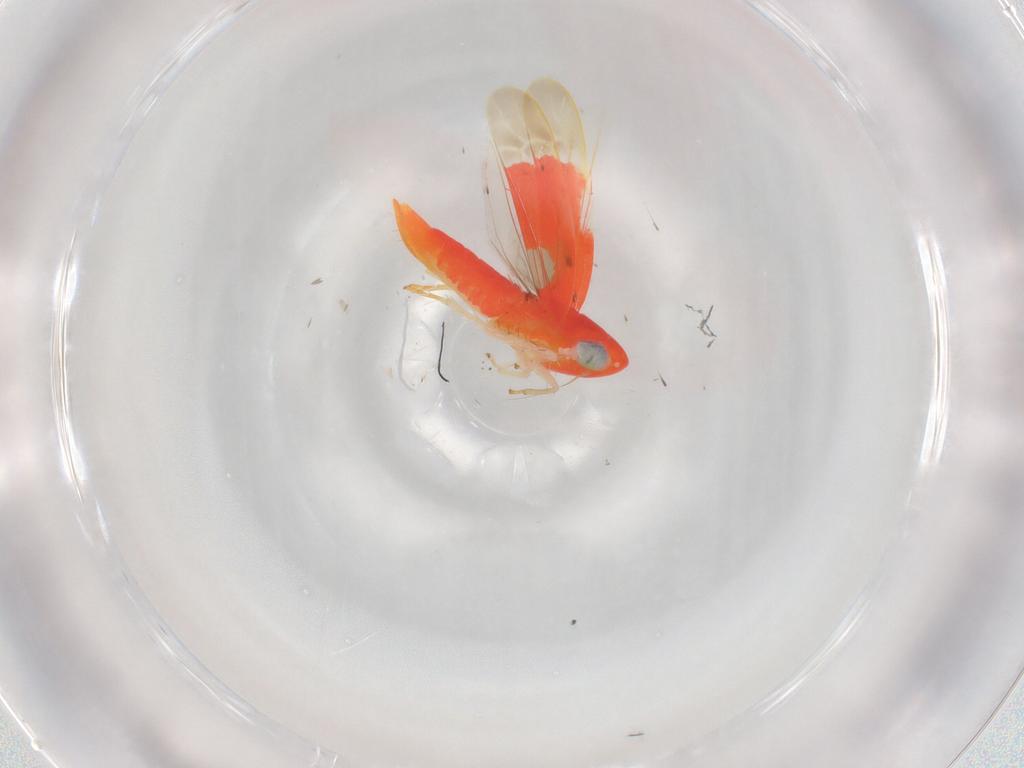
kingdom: Animalia
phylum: Arthropoda
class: Insecta
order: Hemiptera
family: Cicadellidae
